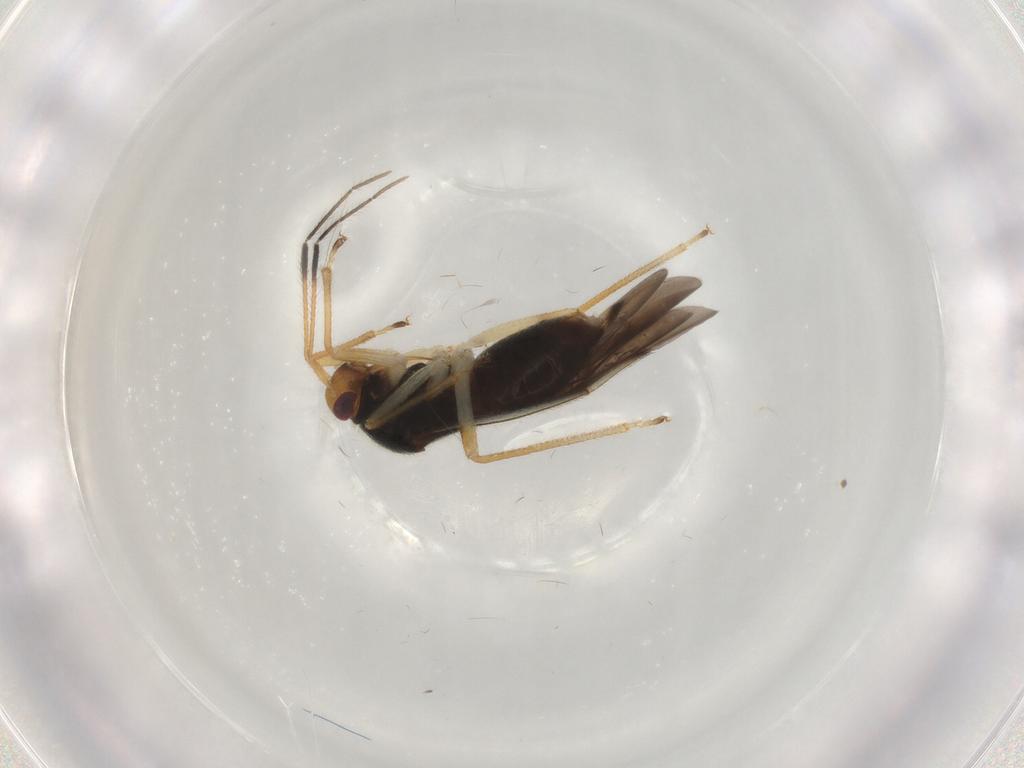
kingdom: Animalia
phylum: Arthropoda
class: Insecta
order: Hemiptera
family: Miridae
